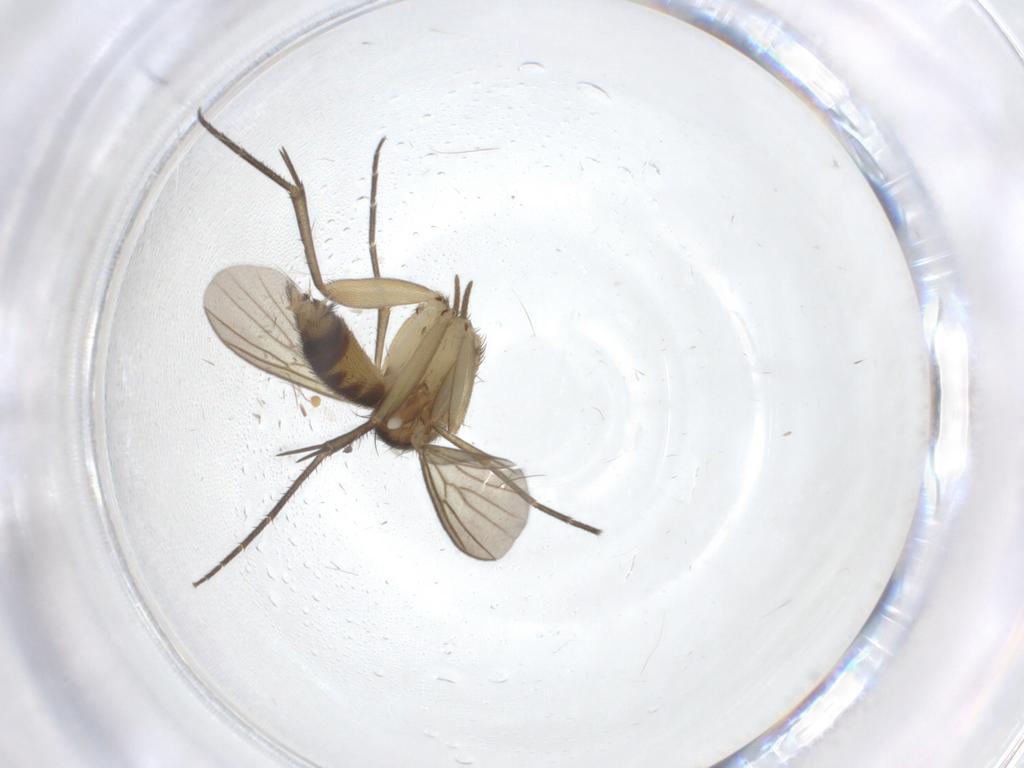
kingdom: Animalia
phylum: Arthropoda
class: Insecta
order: Diptera
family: Phoridae
